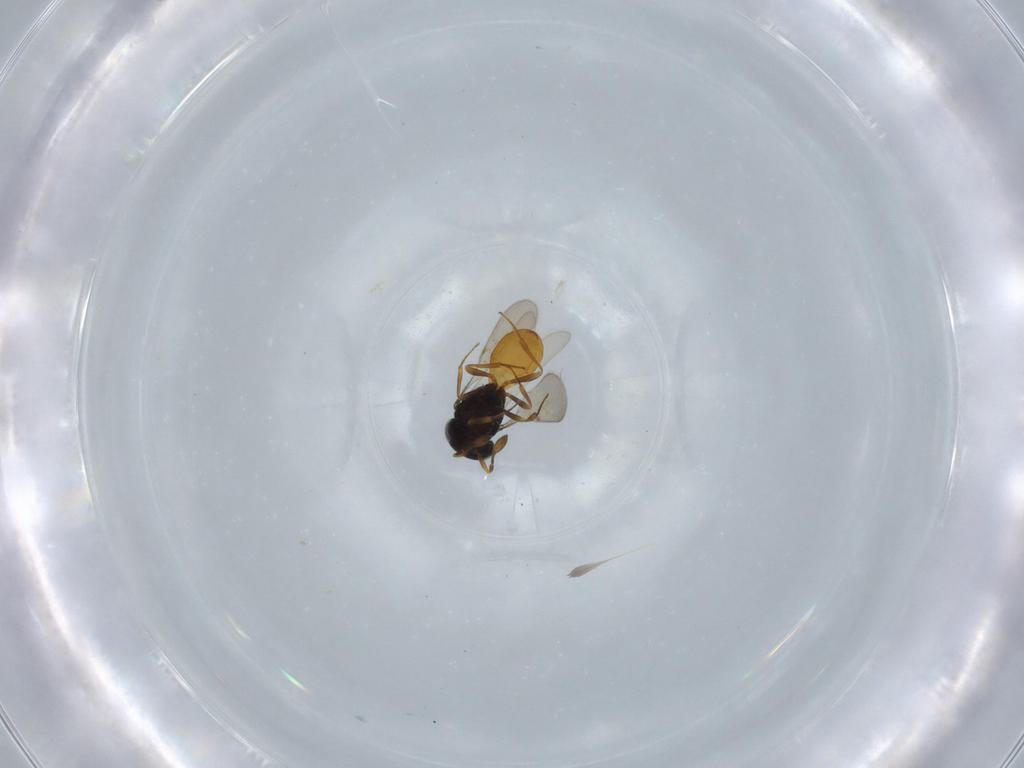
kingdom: Animalia
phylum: Arthropoda
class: Insecta
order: Hymenoptera
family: Scelionidae
